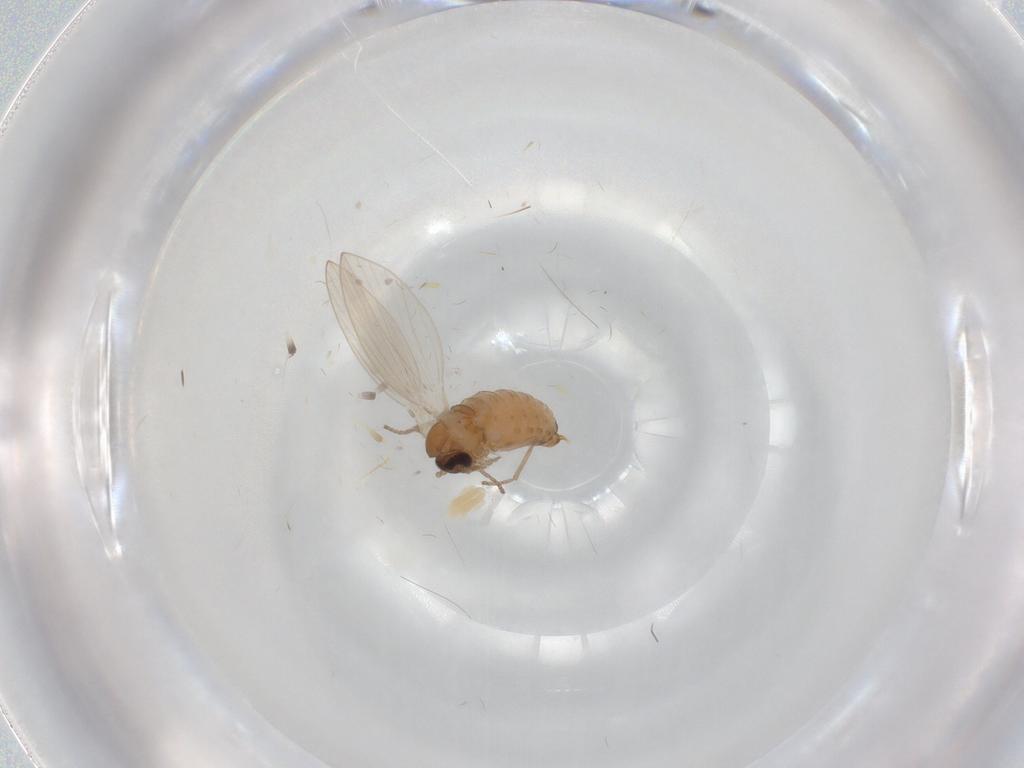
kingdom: Animalia
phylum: Arthropoda
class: Insecta
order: Diptera
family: Psychodidae
